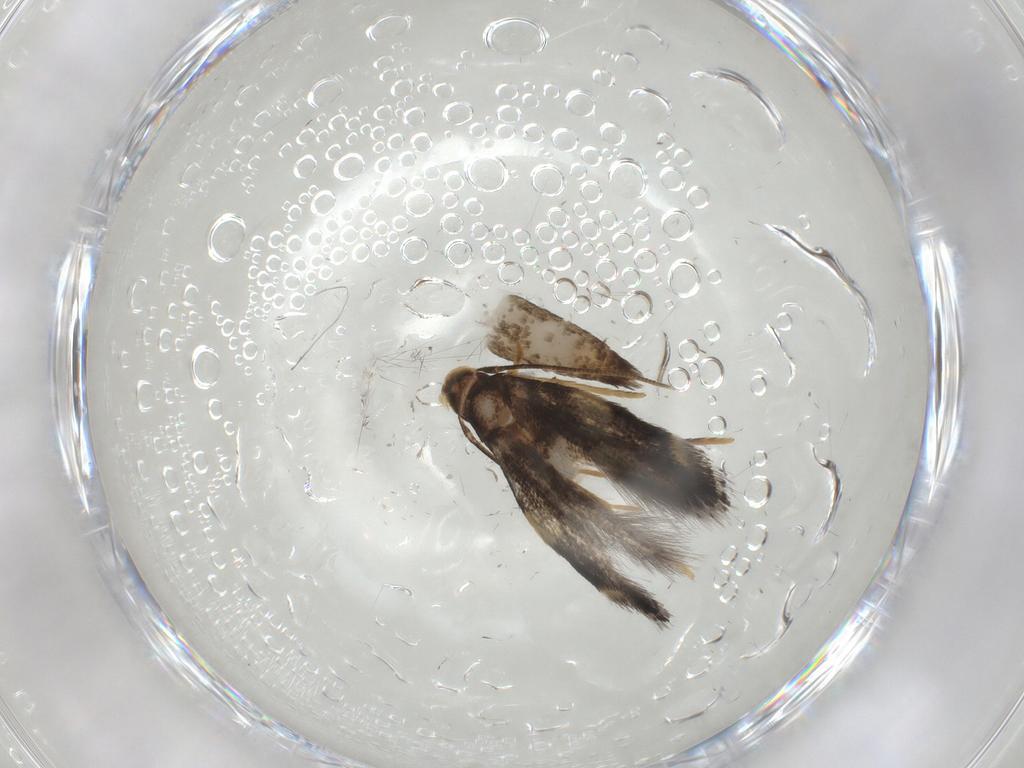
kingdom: Animalia
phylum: Arthropoda
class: Insecta
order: Lepidoptera
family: Gelechiidae
